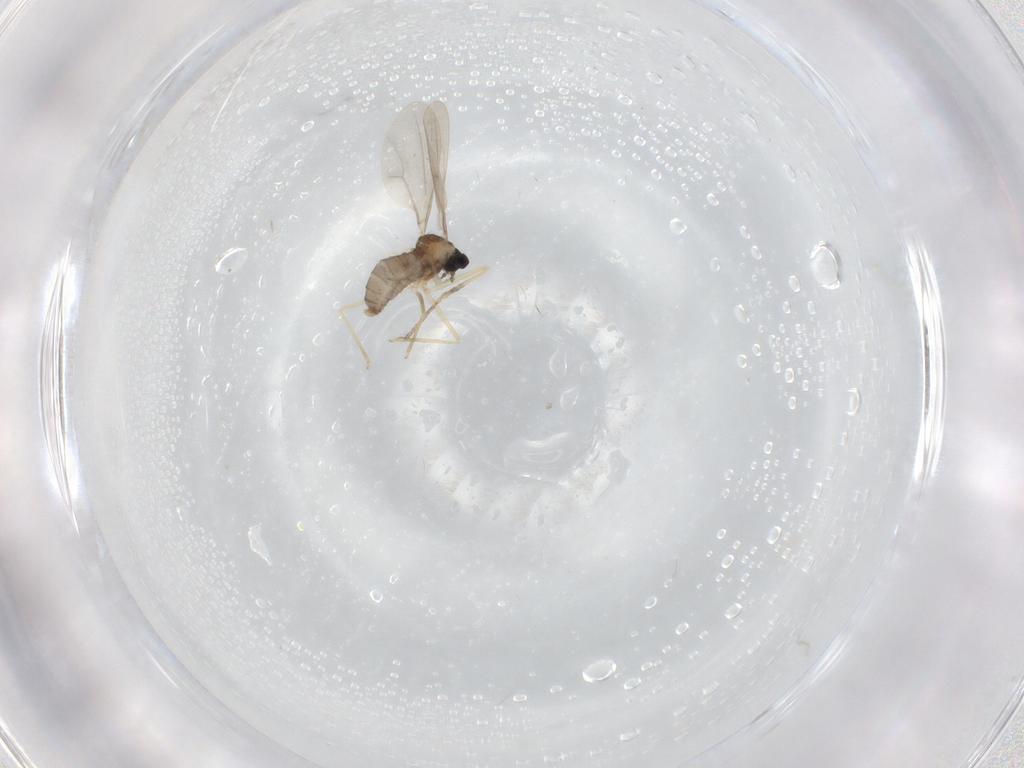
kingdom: Animalia
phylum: Arthropoda
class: Insecta
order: Diptera
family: Cecidomyiidae
